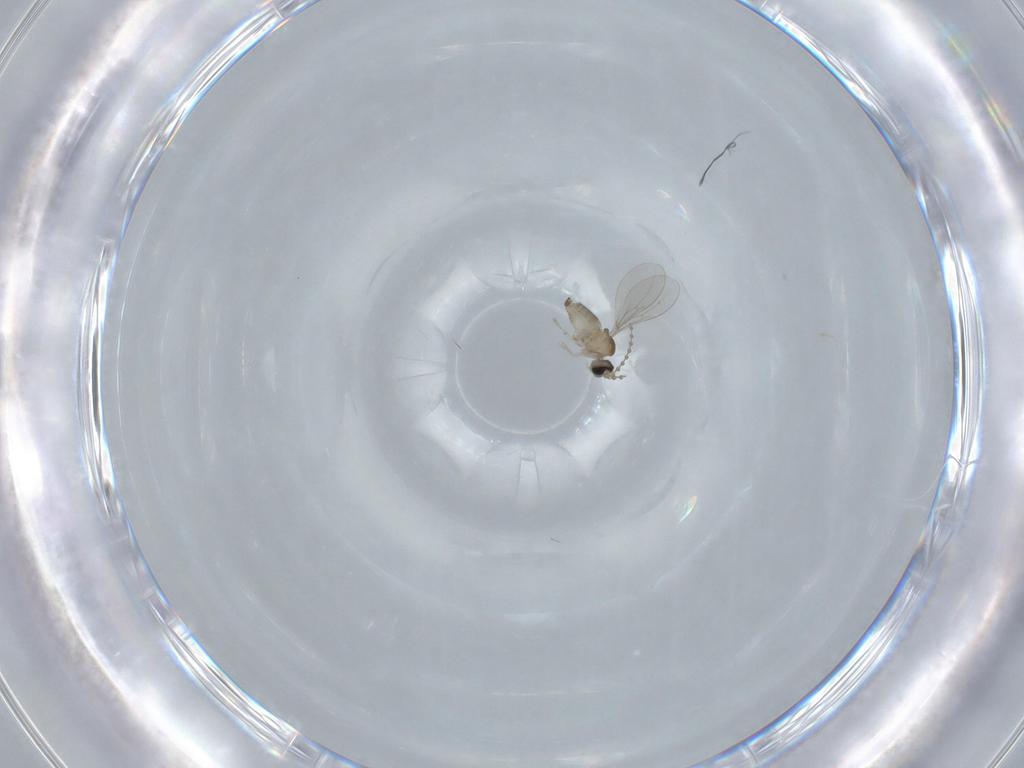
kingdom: Animalia
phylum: Arthropoda
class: Insecta
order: Diptera
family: Cecidomyiidae
